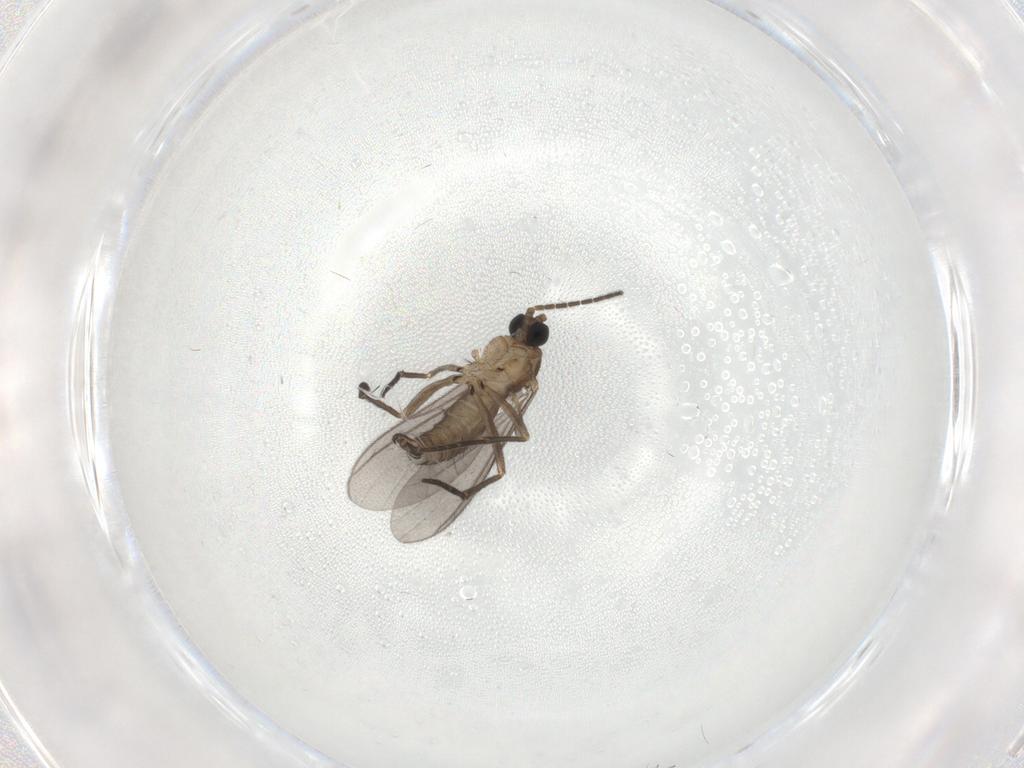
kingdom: Animalia
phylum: Arthropoda
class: Insecta
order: Diptera
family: Sciaridae
